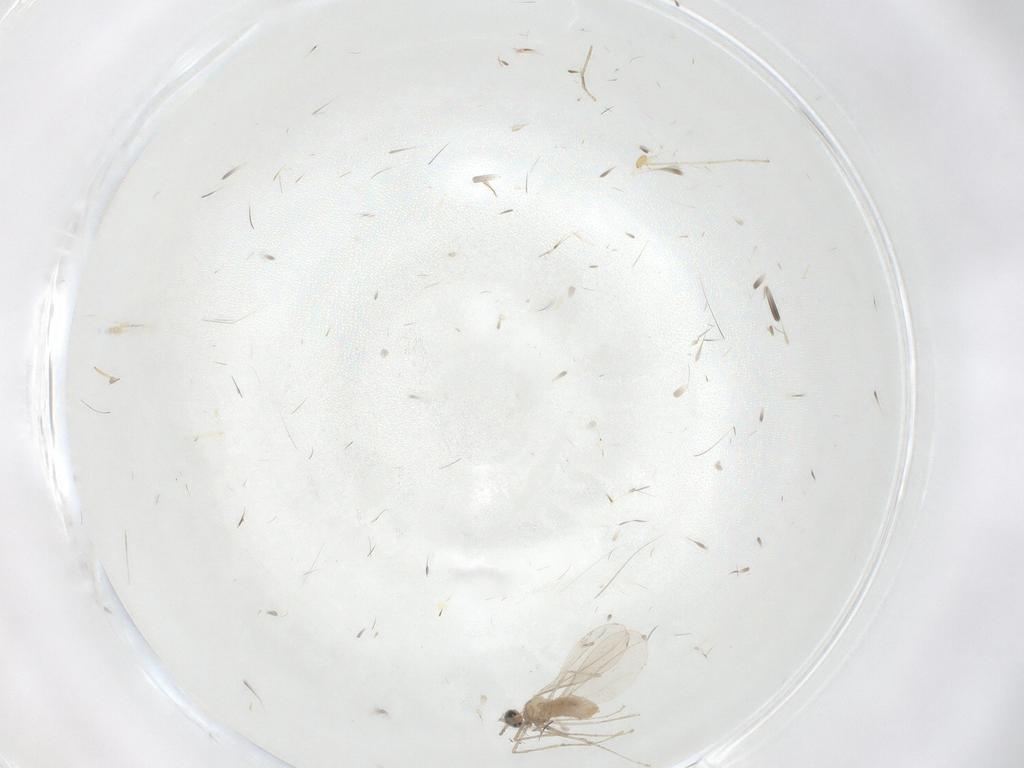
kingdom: Animalia
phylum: Arthropoda
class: Insecta
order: Diptera
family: Cecidomyiidae
